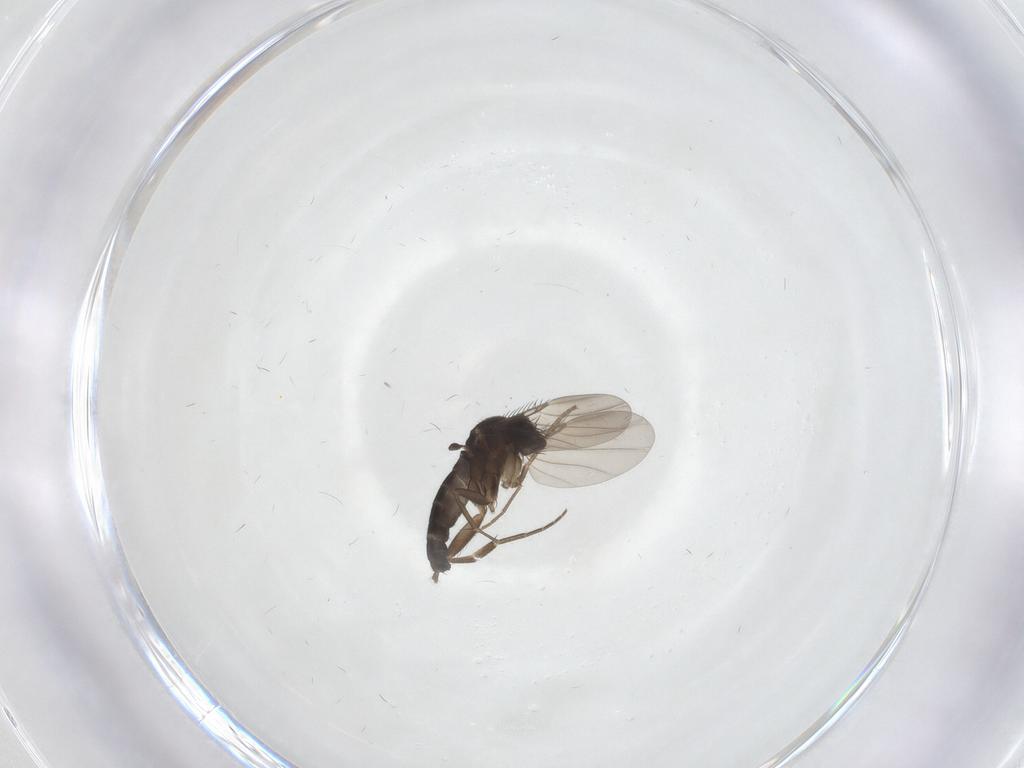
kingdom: Animalia
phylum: Arthropoda
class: Insecta
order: Diptera
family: Phoridae
